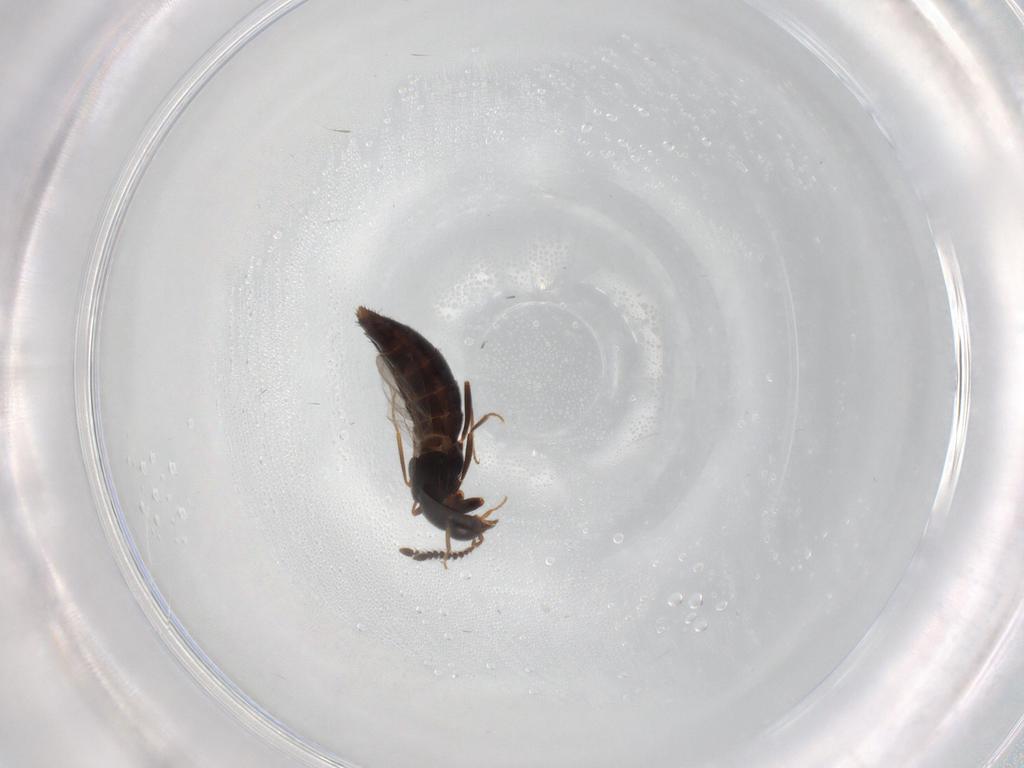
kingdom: Animalia
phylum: Arthropoda
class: Insecta
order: Coleoptera
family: Staphylinidae
